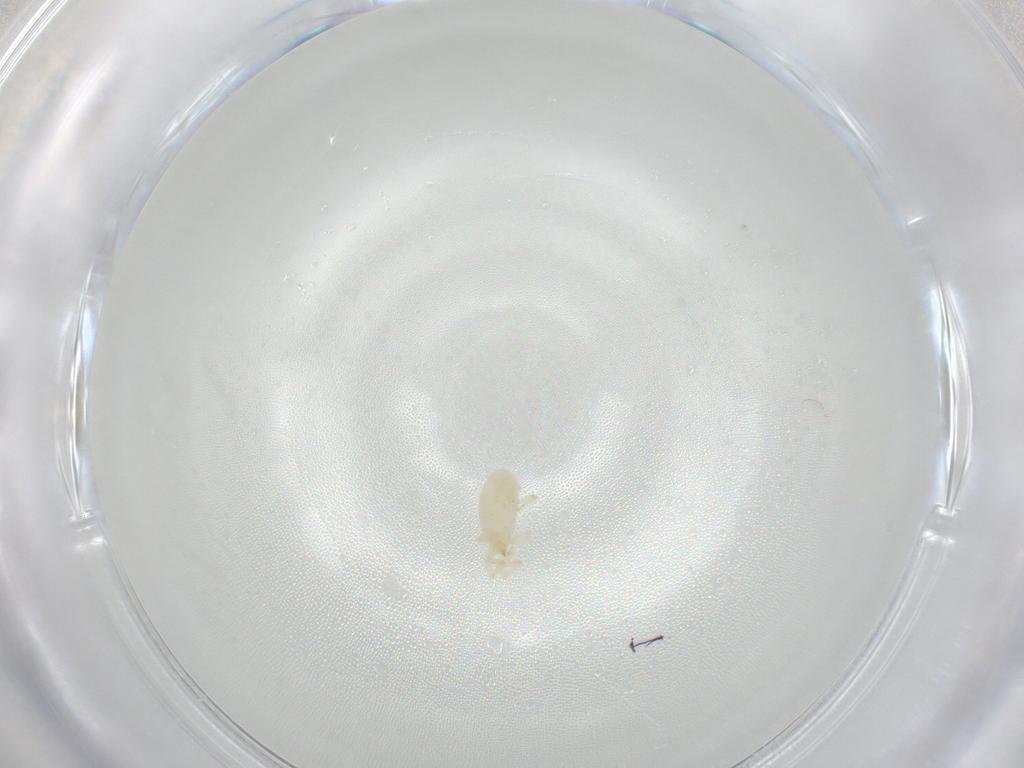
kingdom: Animalia
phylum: Arthropoda
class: Arachnida
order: Trombidiformes
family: Erythraeidae
